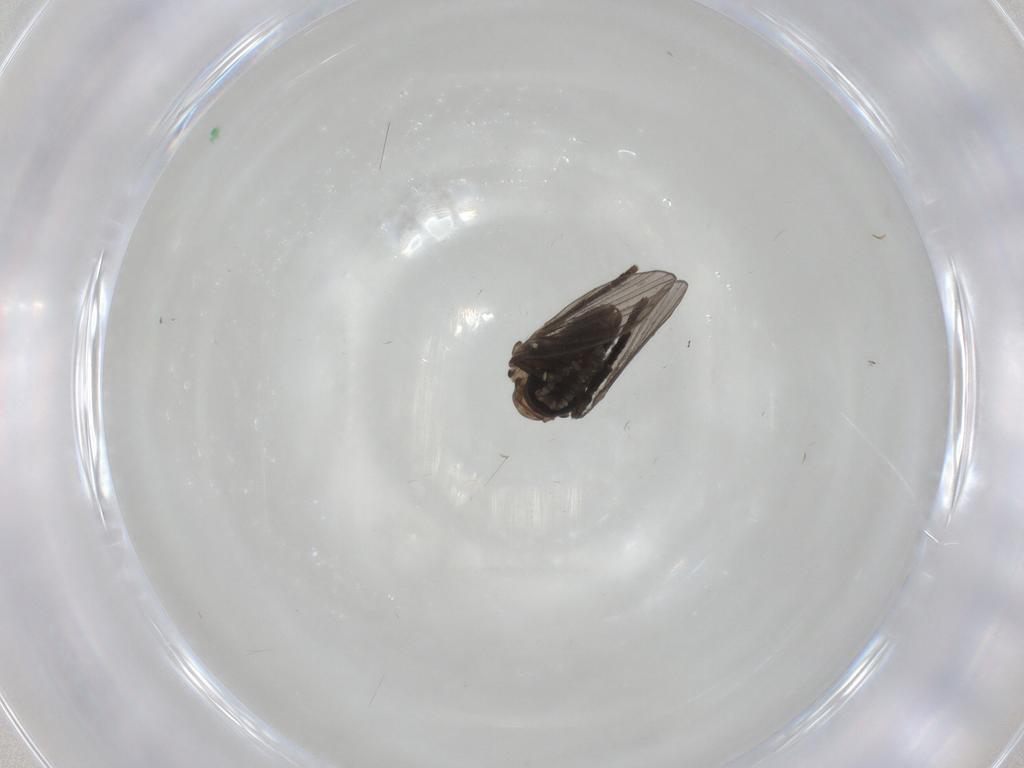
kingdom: Animalia
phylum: Arthropoda
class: Insecta
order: Diptera
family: Psychodidae
